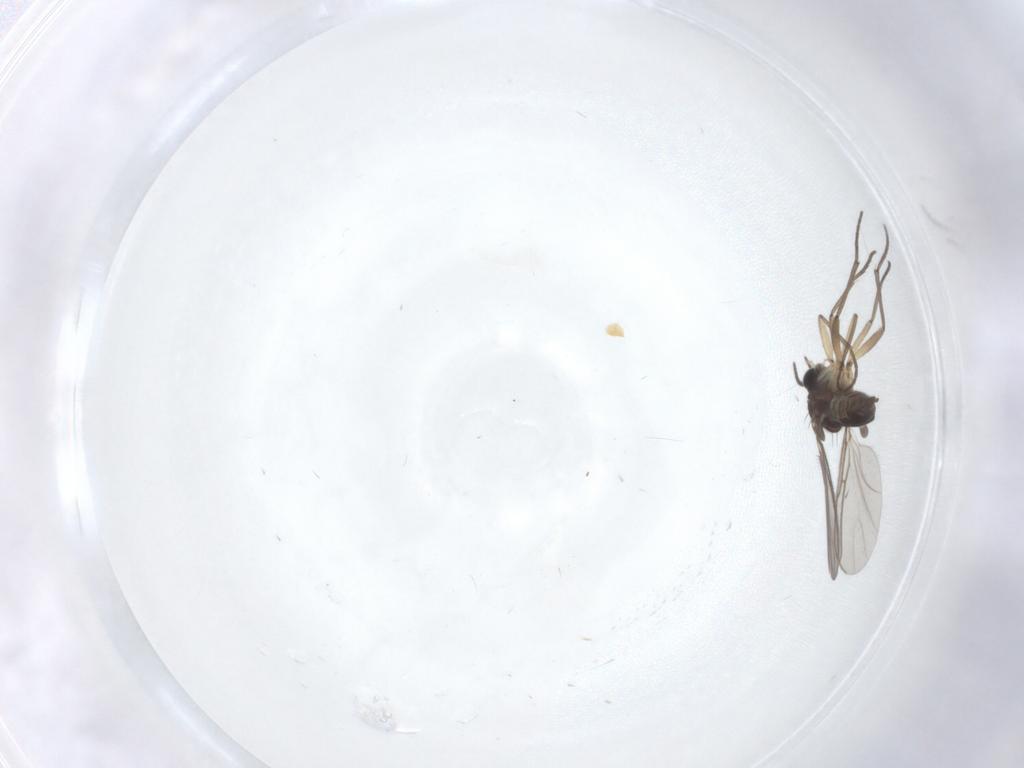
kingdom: Animalia
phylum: Arthropoda
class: Insecta
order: Diptera
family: Sciaridae
